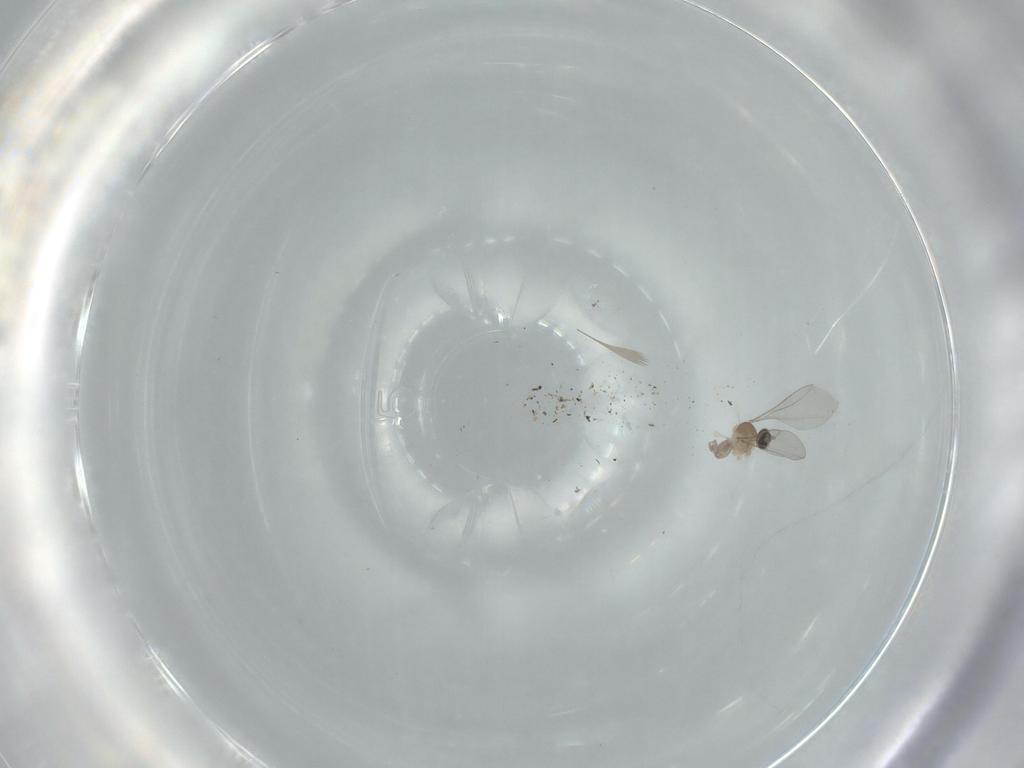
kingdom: Animalia
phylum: Arthropoda
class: Insecta
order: Diptera
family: Cecidomyiidae
